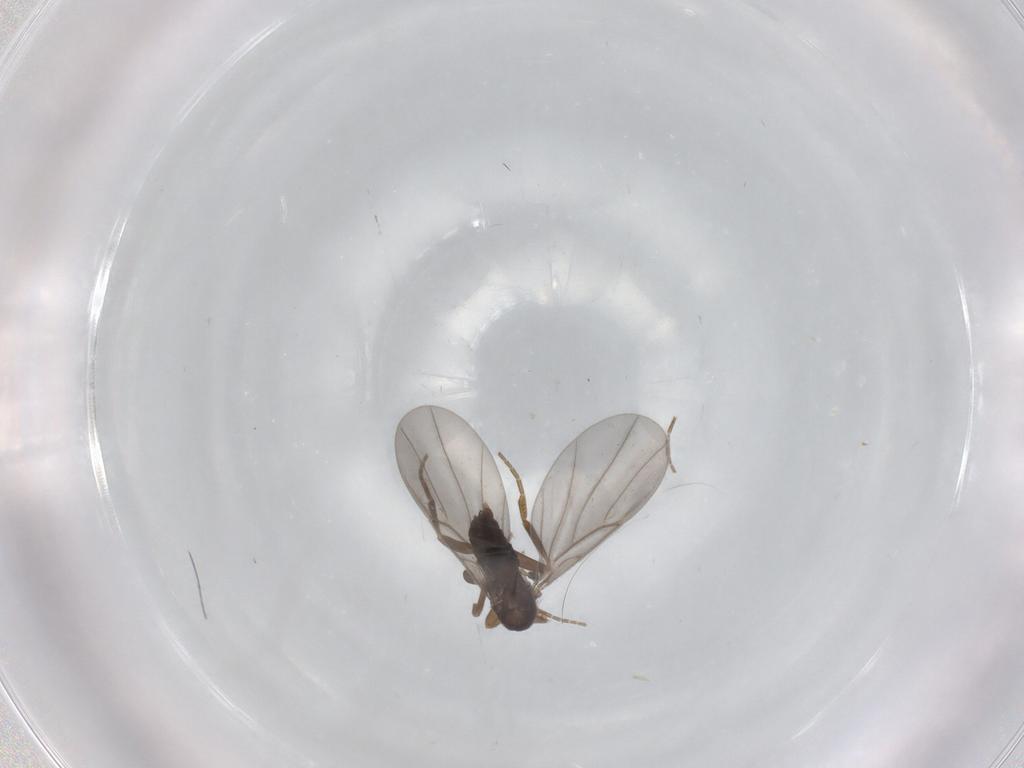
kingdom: Animalia
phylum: Arthropoda
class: Insecta
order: Diptera
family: Phoridae
